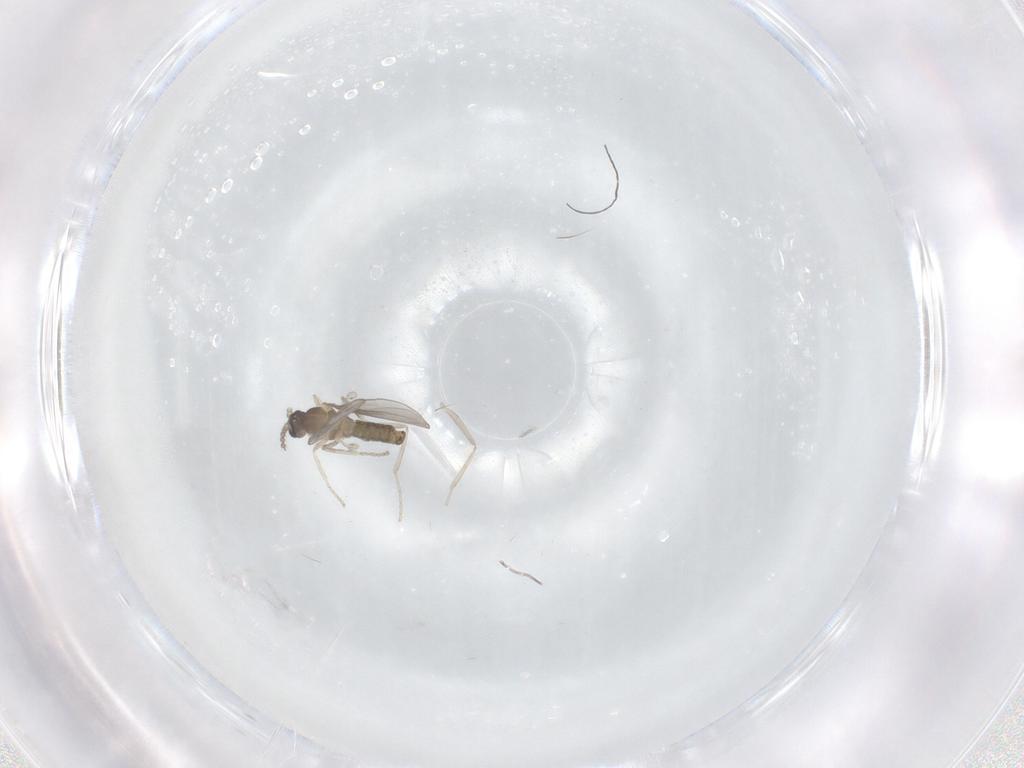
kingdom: Animalia
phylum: Arthropoda
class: Insecta
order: Diptera
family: Cecidomyiidae
